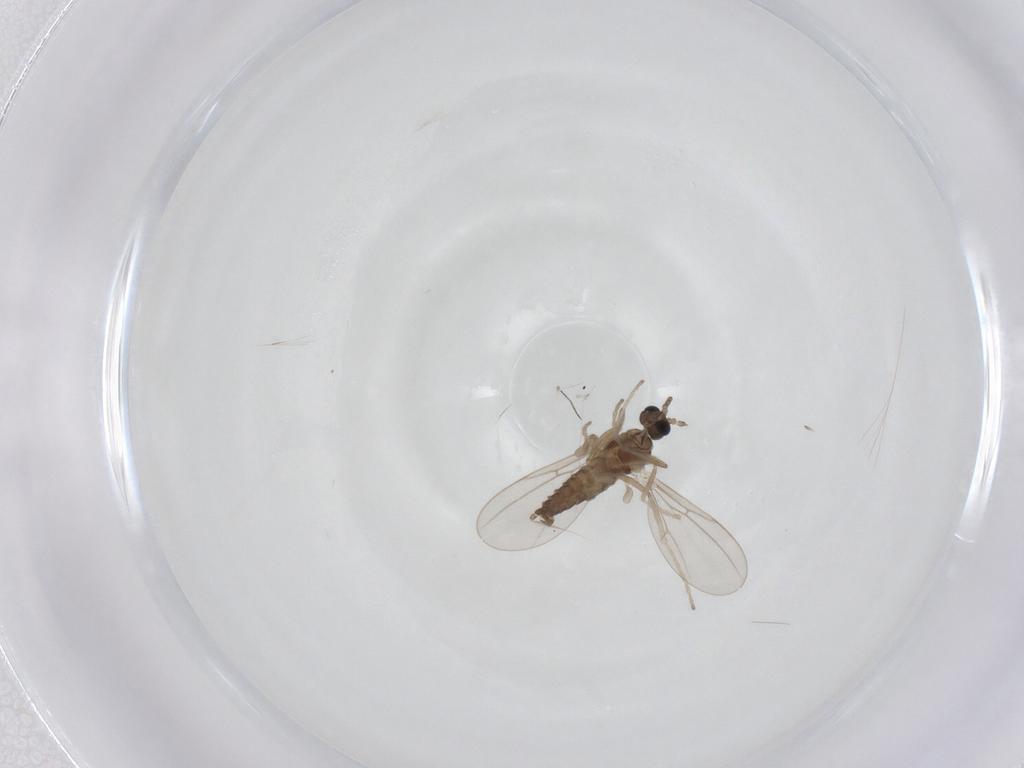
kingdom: Animalia
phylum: Arthropoda
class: Insecta
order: Diptera
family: Cecidomyiidae
